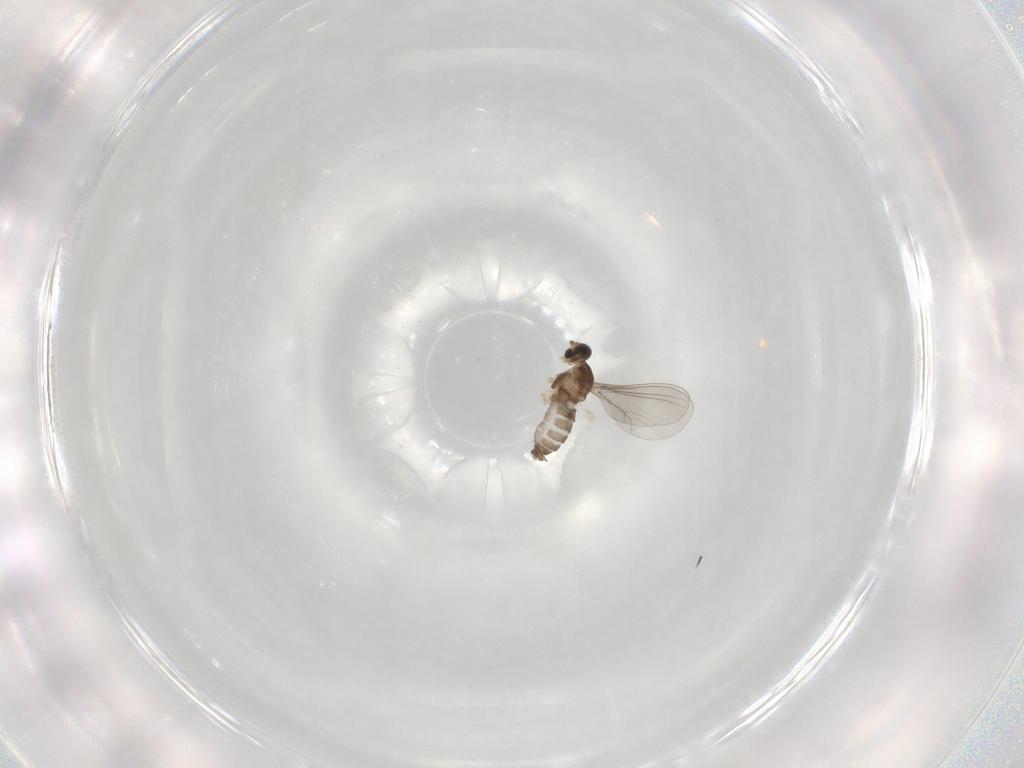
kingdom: Animalia
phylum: Arthropoda
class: Insecta
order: Diptera
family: Cecidomyiidae
